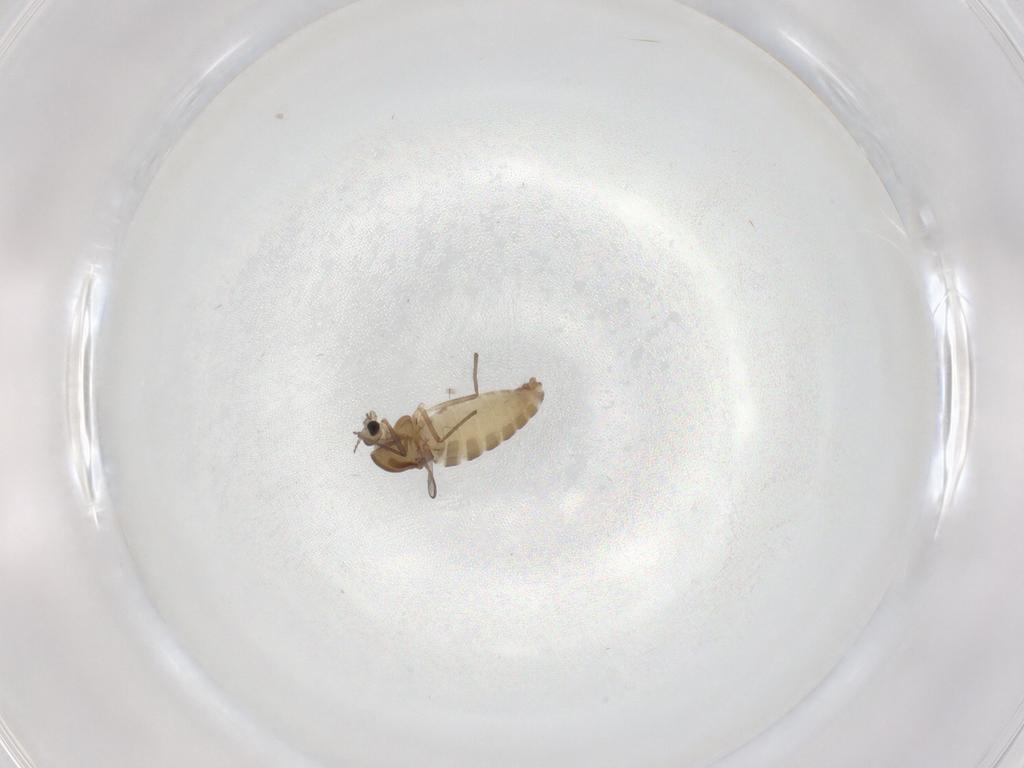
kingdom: Animalia
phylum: Arthropoda
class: Insecta
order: Diptera
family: Chironomidae
